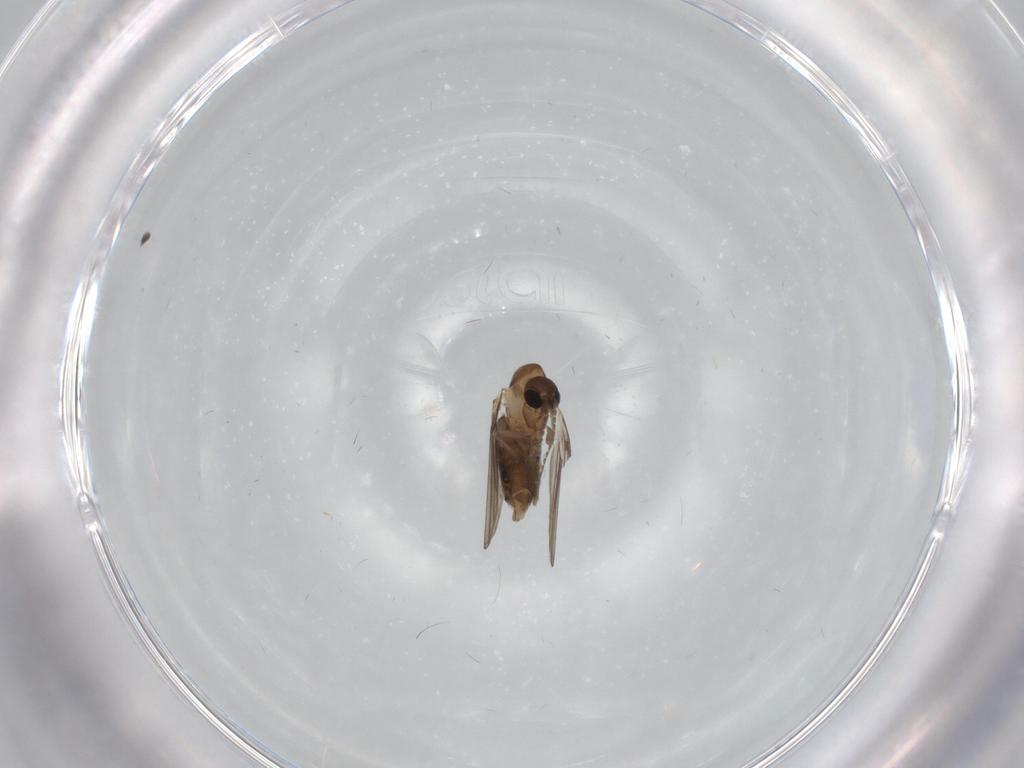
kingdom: Animalia
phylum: Arthropoda
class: Insecta
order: Diptera
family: Psychodidae
